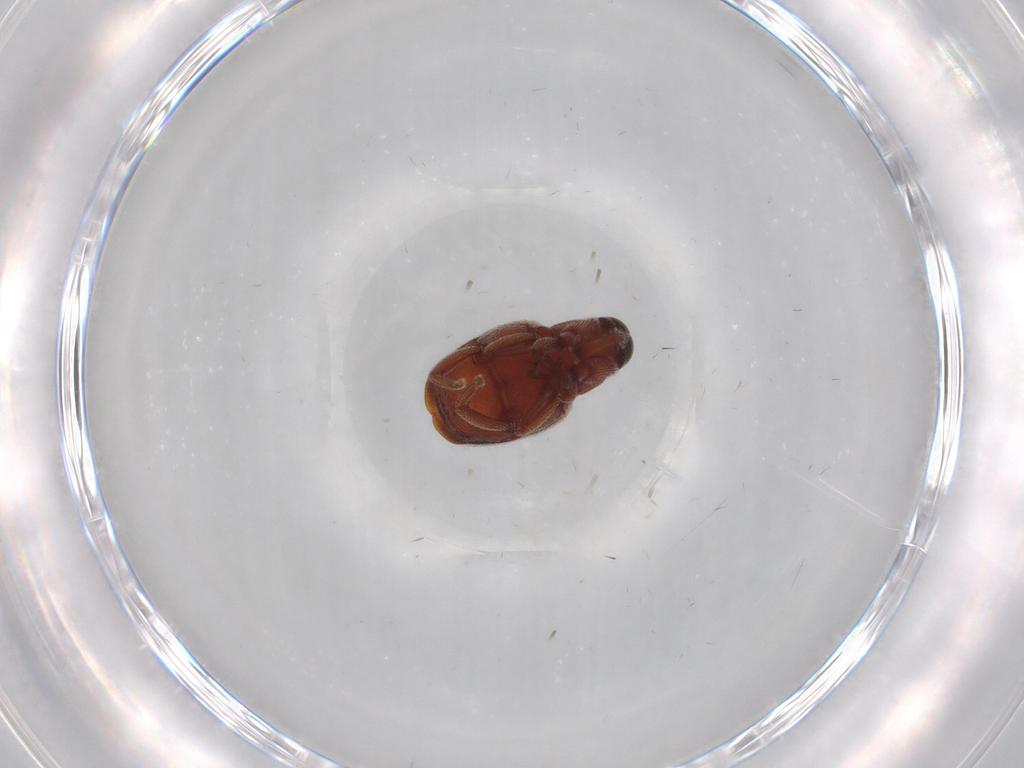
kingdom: Animalia
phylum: Arthropoda
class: Insecta
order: Coleoptera
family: Curculionidae
